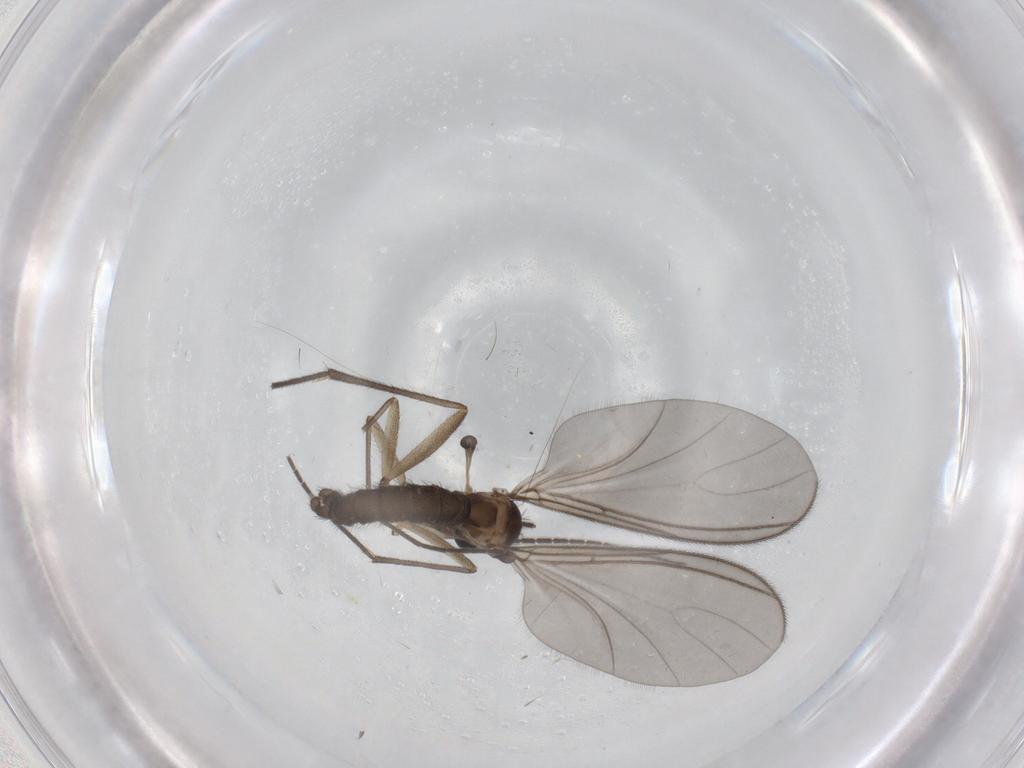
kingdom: Animalia
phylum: Arthropoda
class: Insecta
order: Diptera
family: Sciaridae
